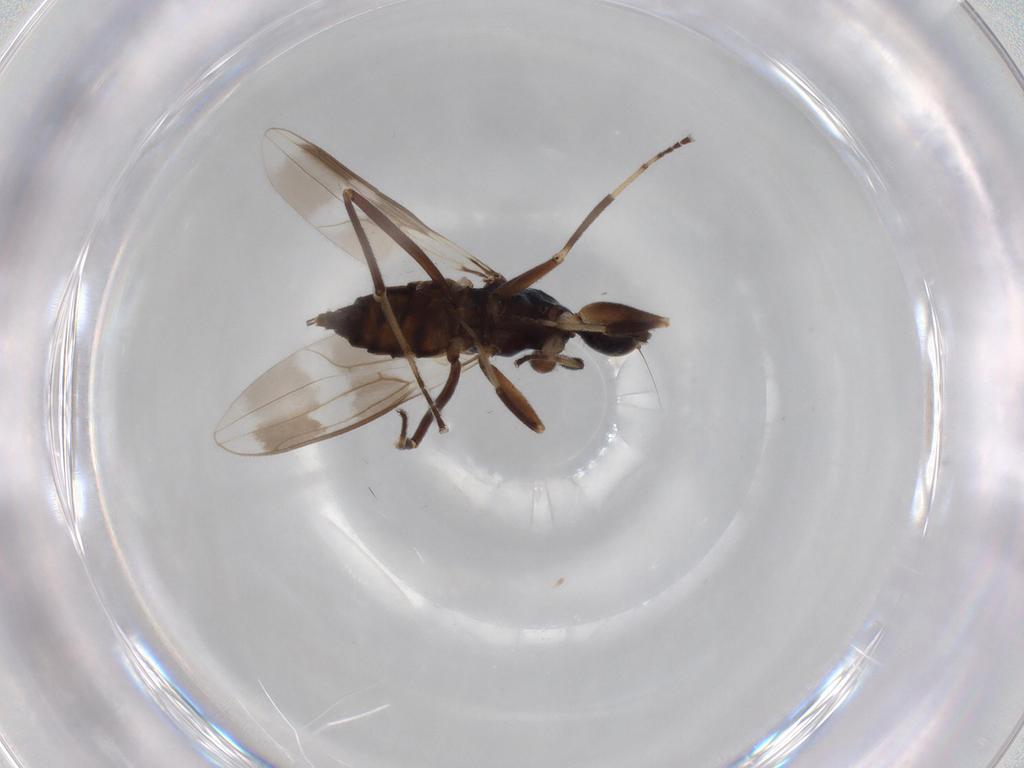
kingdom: Animalia
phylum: Arthropoda
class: Insecta
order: Diptera
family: Hybotidae
